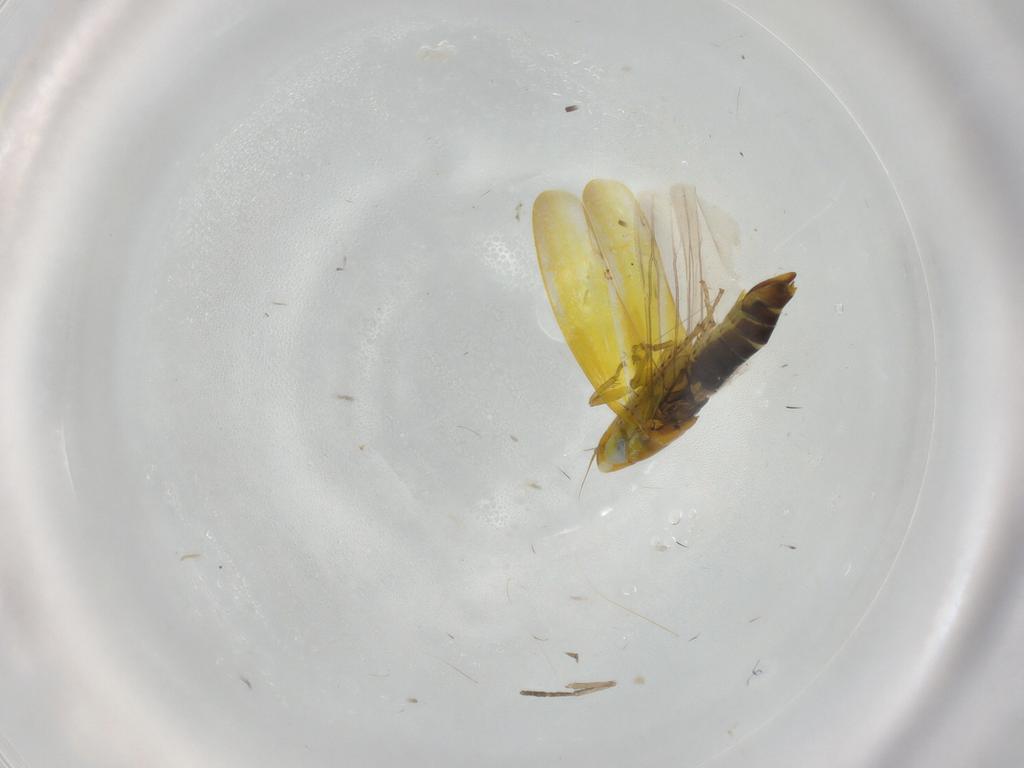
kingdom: Animalia
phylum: Arthropoda
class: Insecta
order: Hemiptera
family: Cicadellidae
